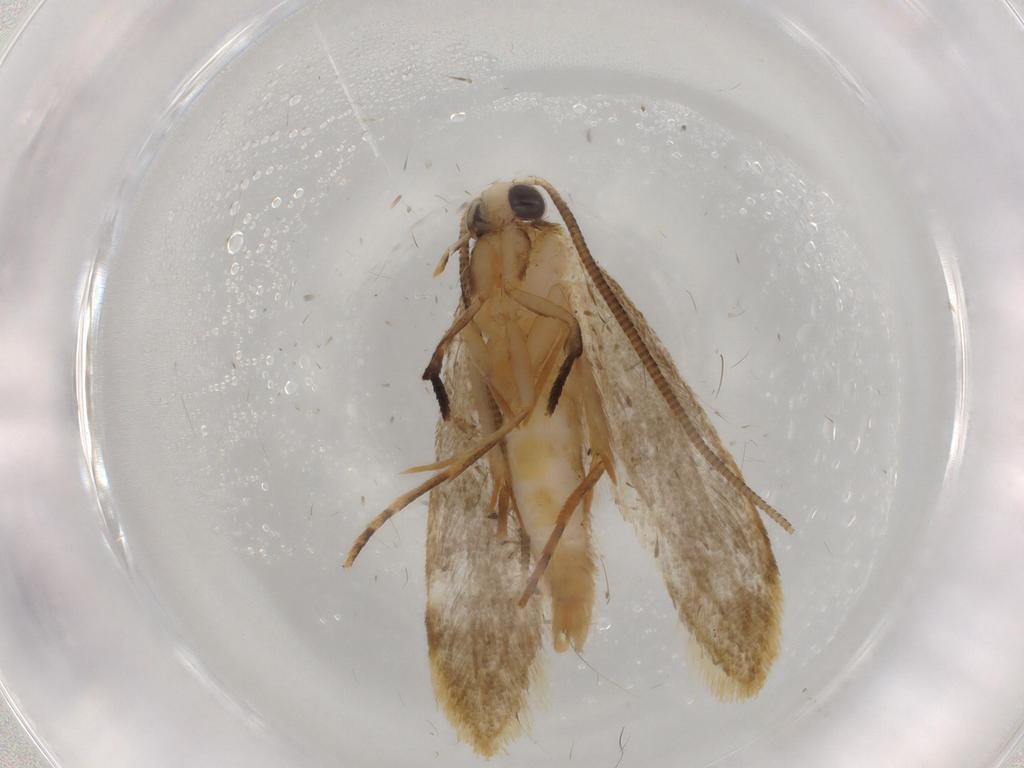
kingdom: Animalia
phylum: Arthropoda
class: Insecta
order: Lepidoptera
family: Tineidae
